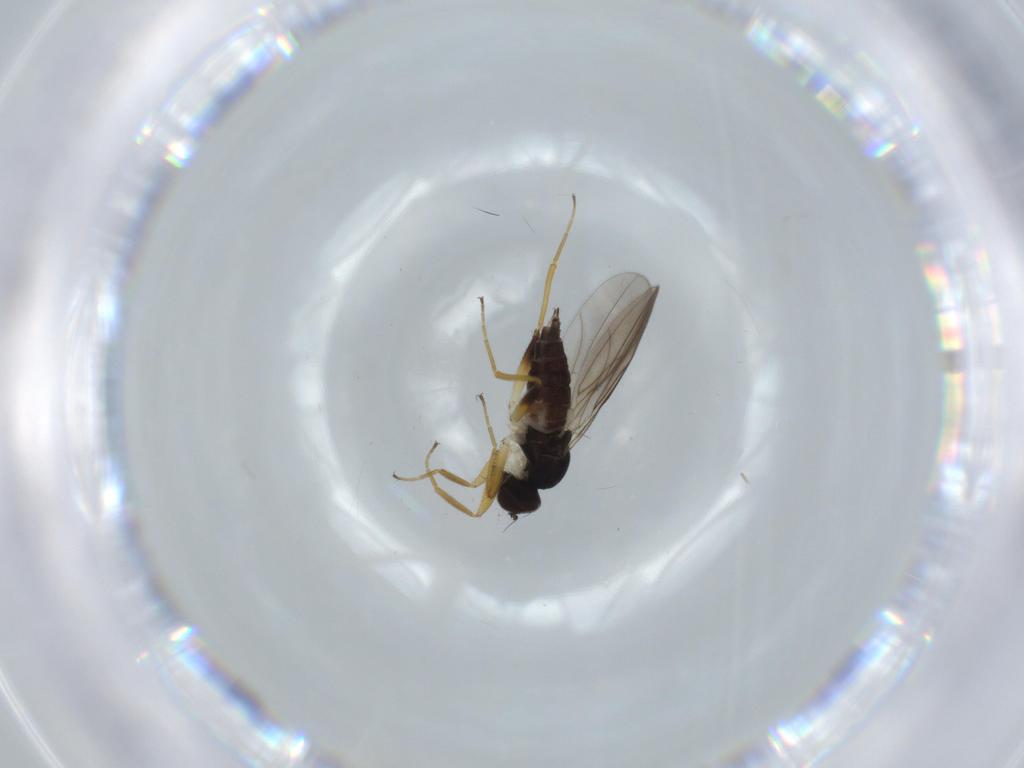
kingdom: Animalia
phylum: Arthropoda
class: Insecta
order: Diptera
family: Hybotidae
